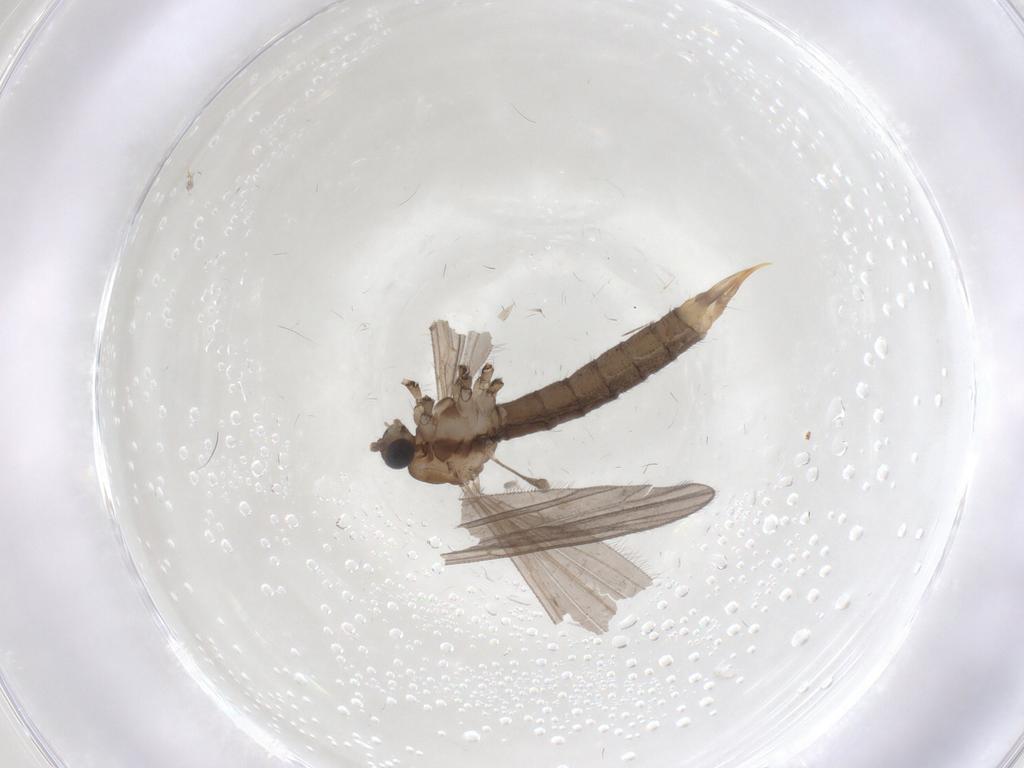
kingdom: Animalia
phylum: Arthropoda
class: Insecta
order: Diptera
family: Limoniidae
